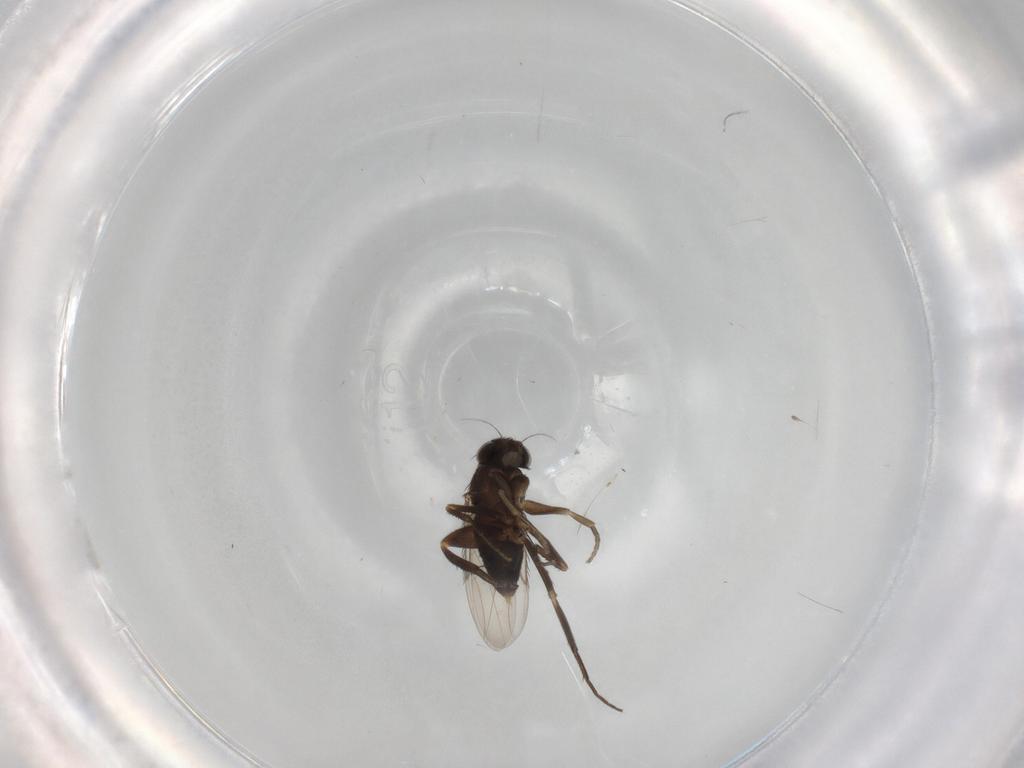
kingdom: Animalia
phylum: Arthropoda
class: Insecta
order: Diptera
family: Phoridae
